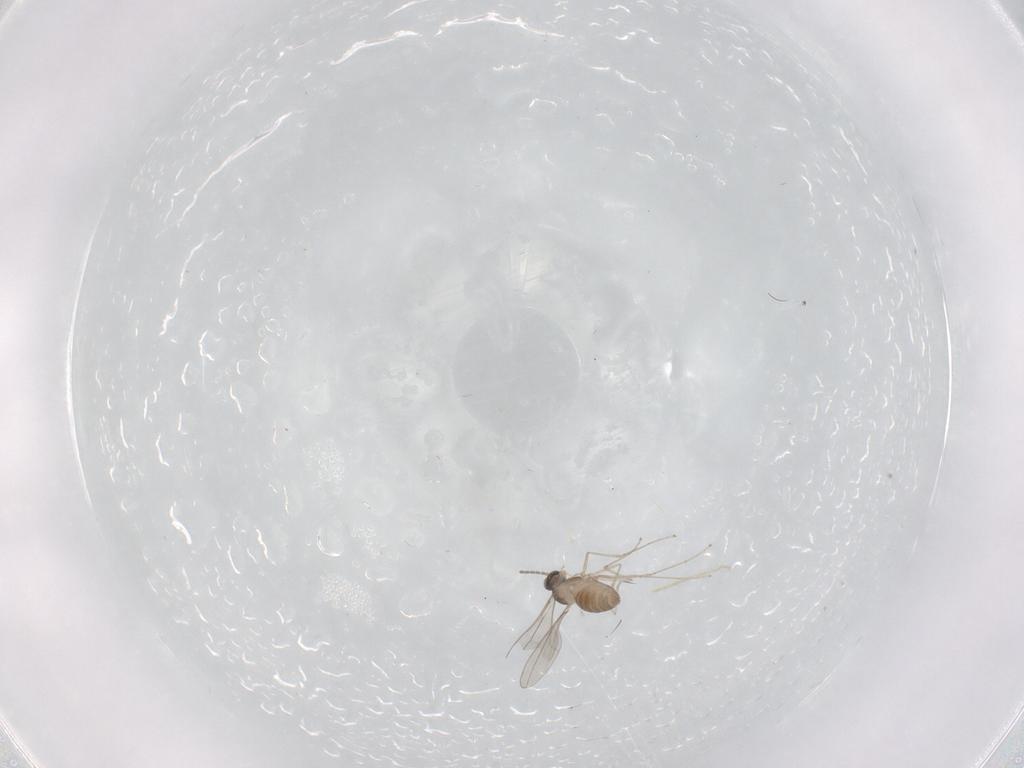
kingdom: Animalia
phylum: Arthropoda
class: Insecta
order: Diptera
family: Cecidomyiidae
